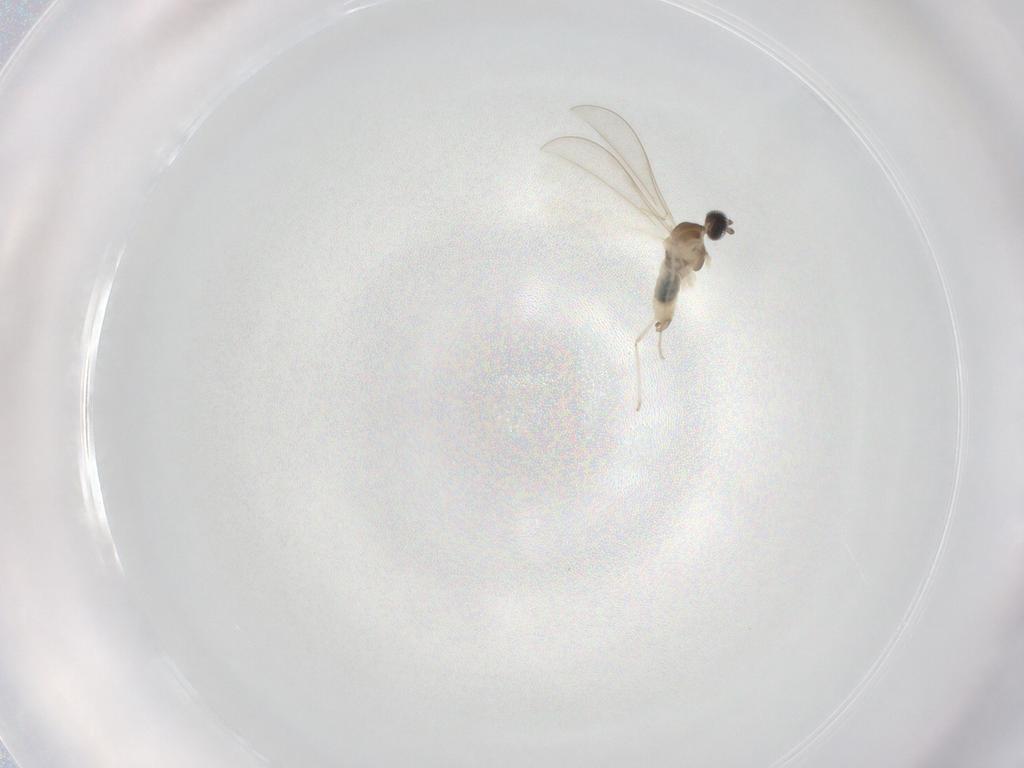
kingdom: Animalia
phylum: Arthropoda
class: Insecta
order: Diptera
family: Cecidomyiidae
